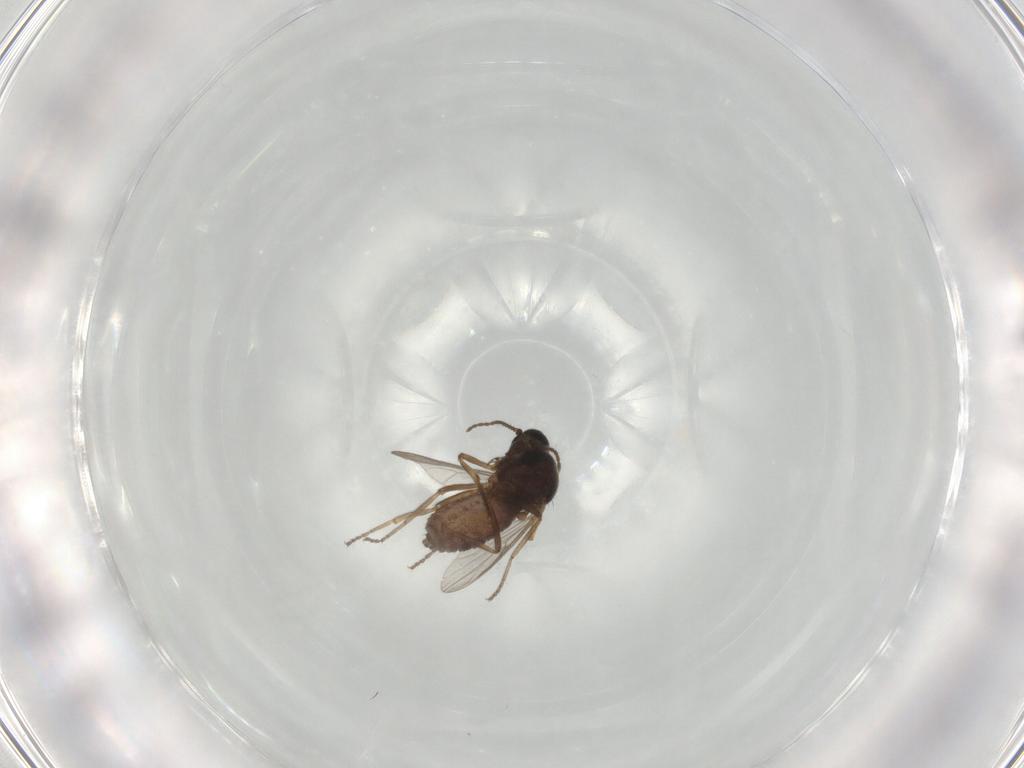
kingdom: Animalia
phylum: Arthropoda
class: Insecta
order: Diptera
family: Ceratopogonidae
